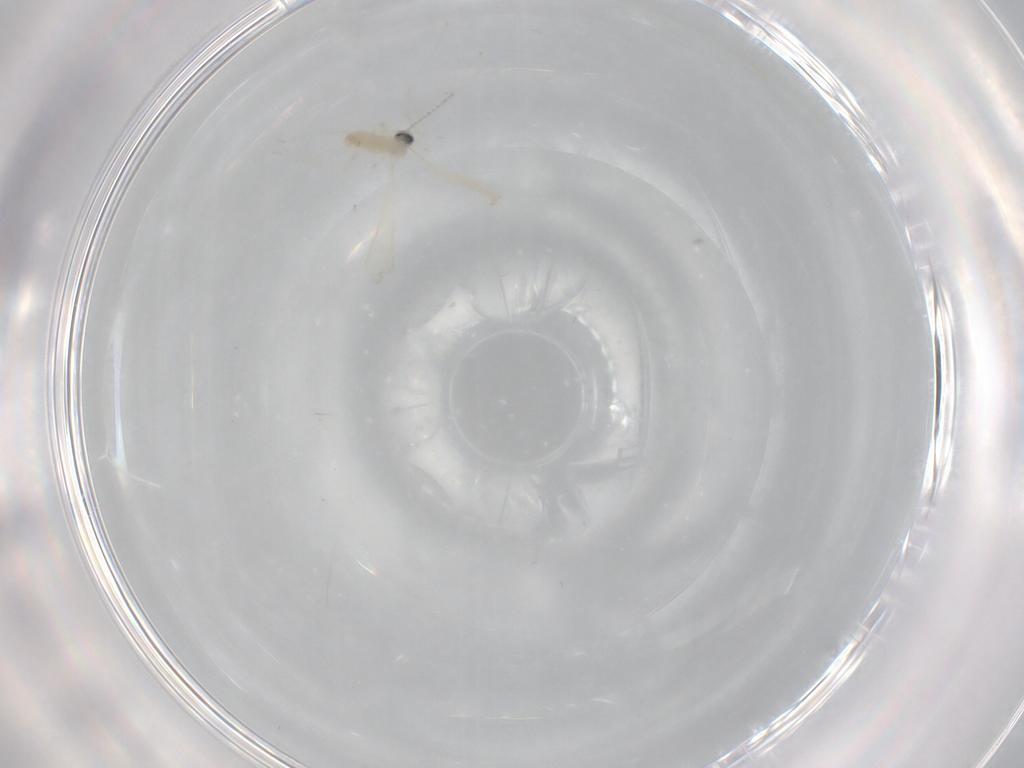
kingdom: Animalia
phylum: Arthropoda
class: Insecta
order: Diptera
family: Cecidomyiidae
